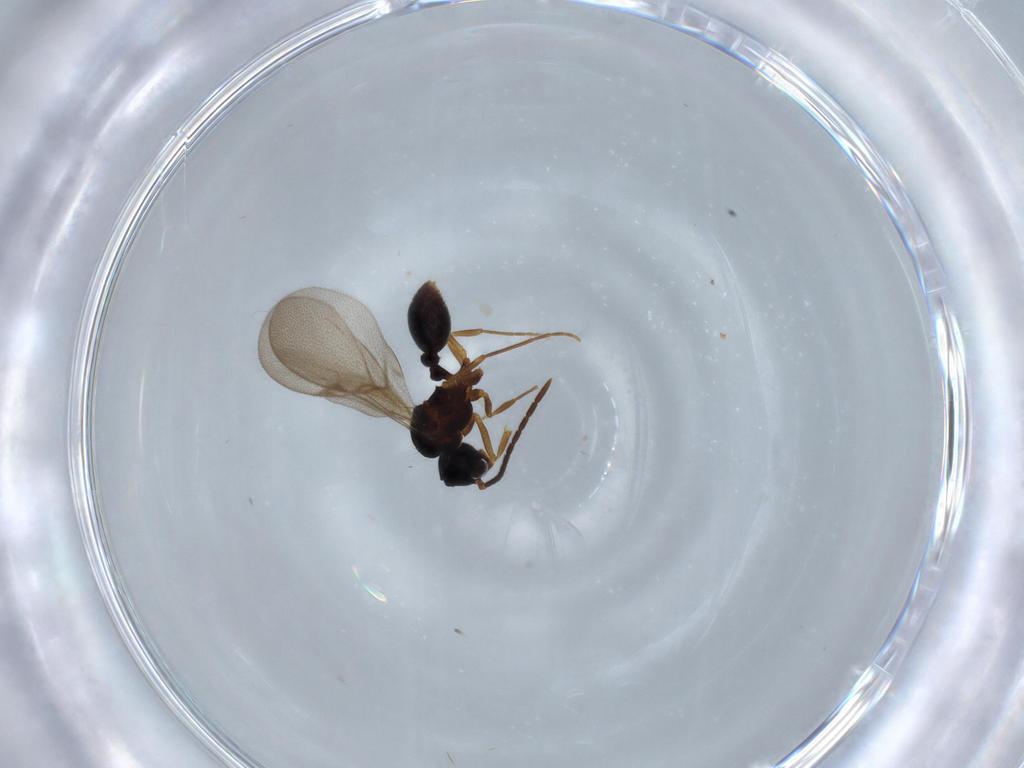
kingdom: Animalia
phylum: Arthropoda
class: Insecta
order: Hymenoptera
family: Formicidae
